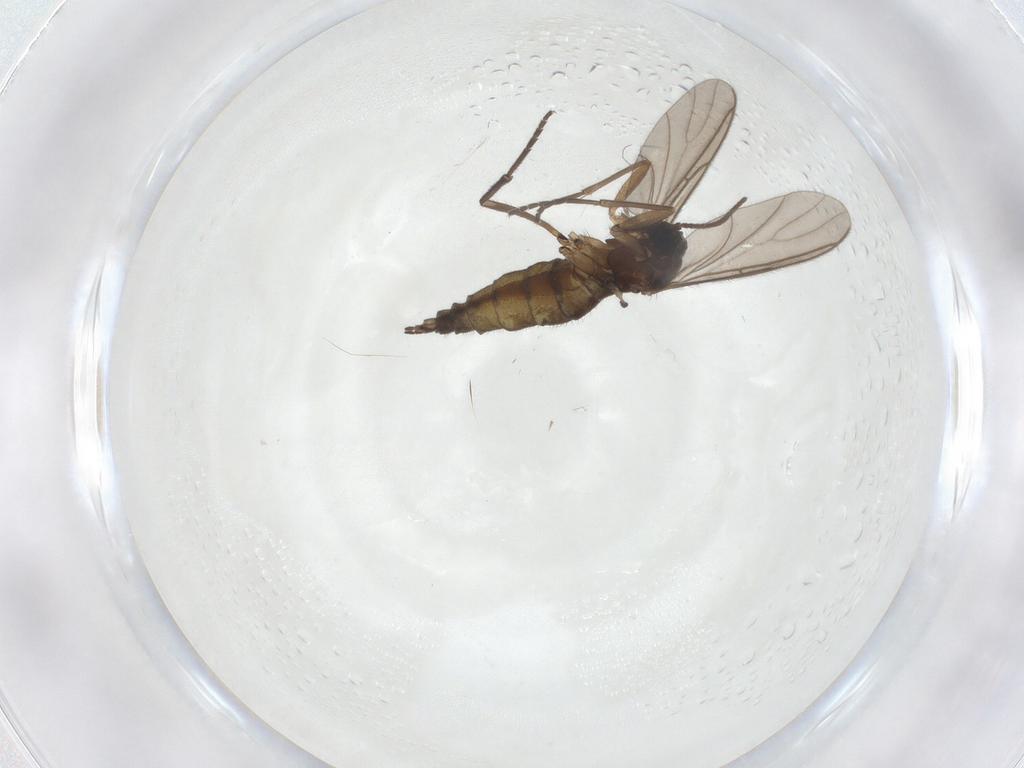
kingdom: Animalia
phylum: Arthropoda
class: Insecta
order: Diptera
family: Sciaridae
